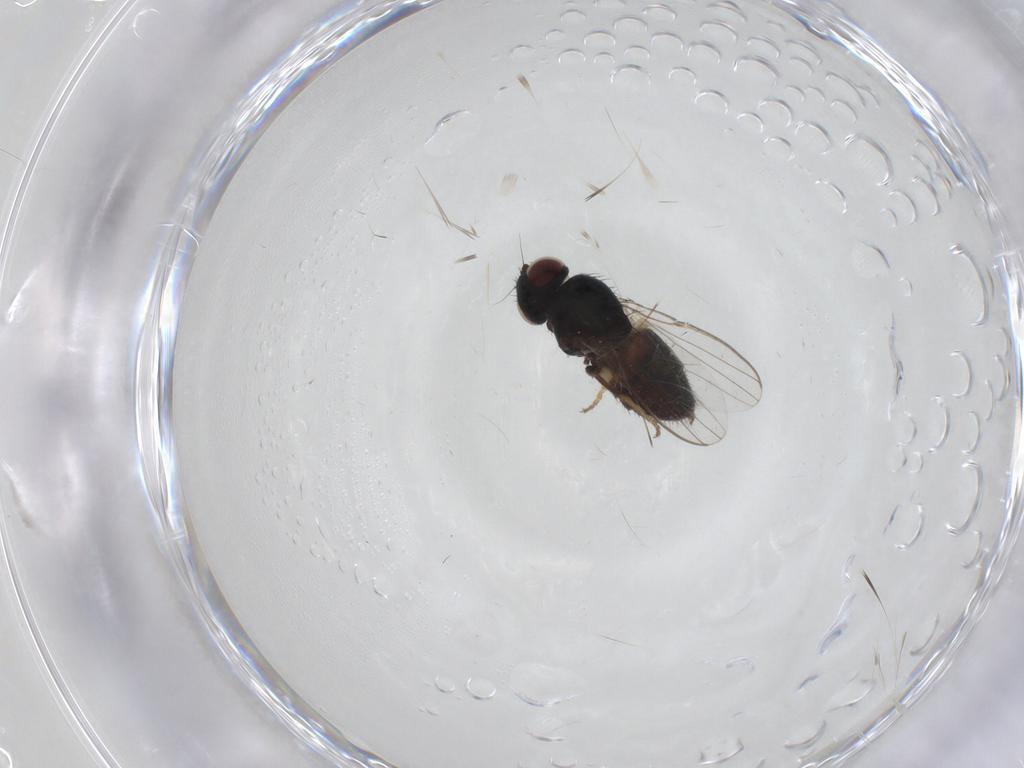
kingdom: Animalia
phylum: Arthropoda
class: Insecta
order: Diptera
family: Chloropidae
